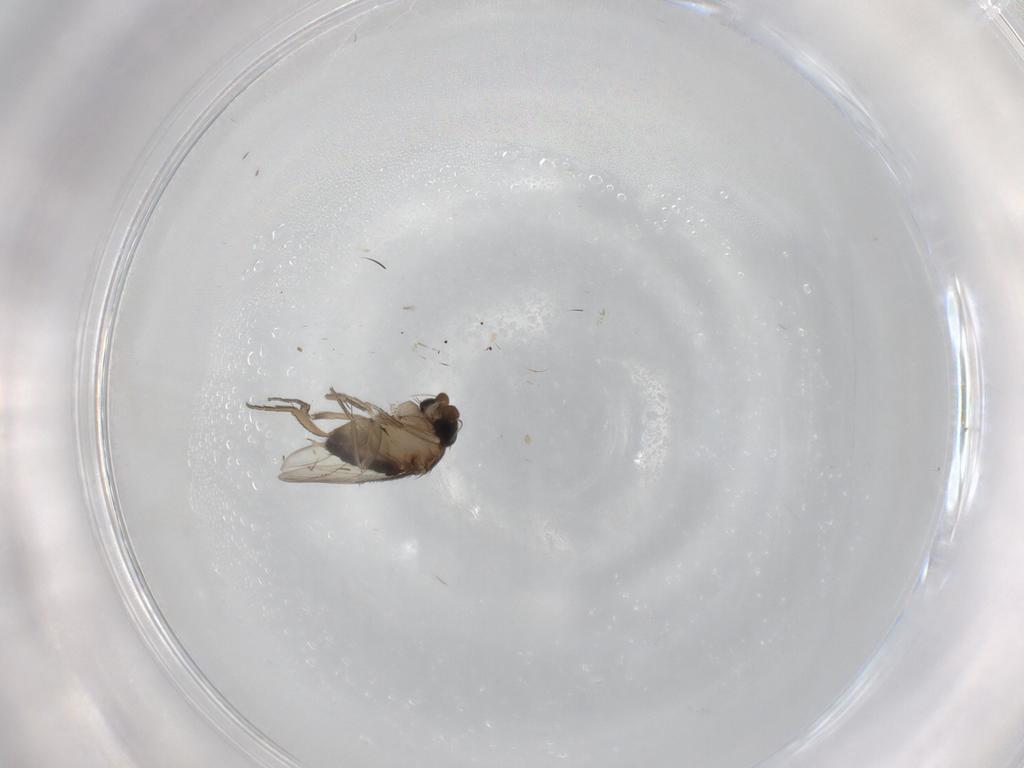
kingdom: Animalia
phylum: Arthropoda
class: Insecta
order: Diptera
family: Phoridae
